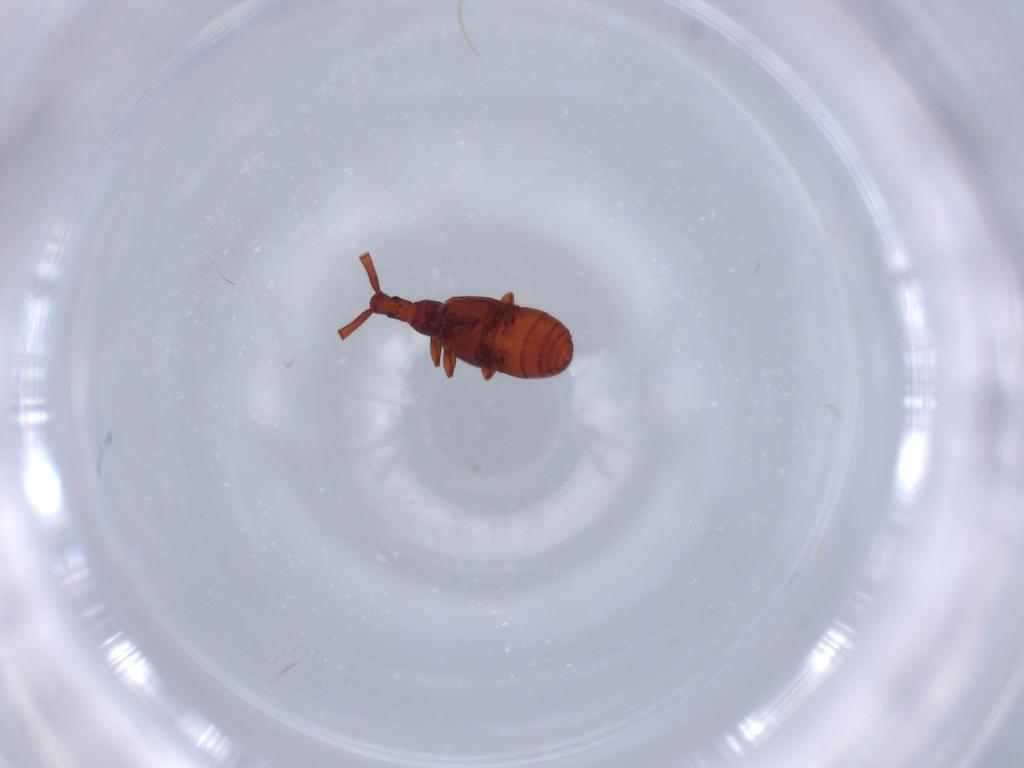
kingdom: Animalia
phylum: Arthropoda
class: Insecta
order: Coleoptera
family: Staphylinidae
